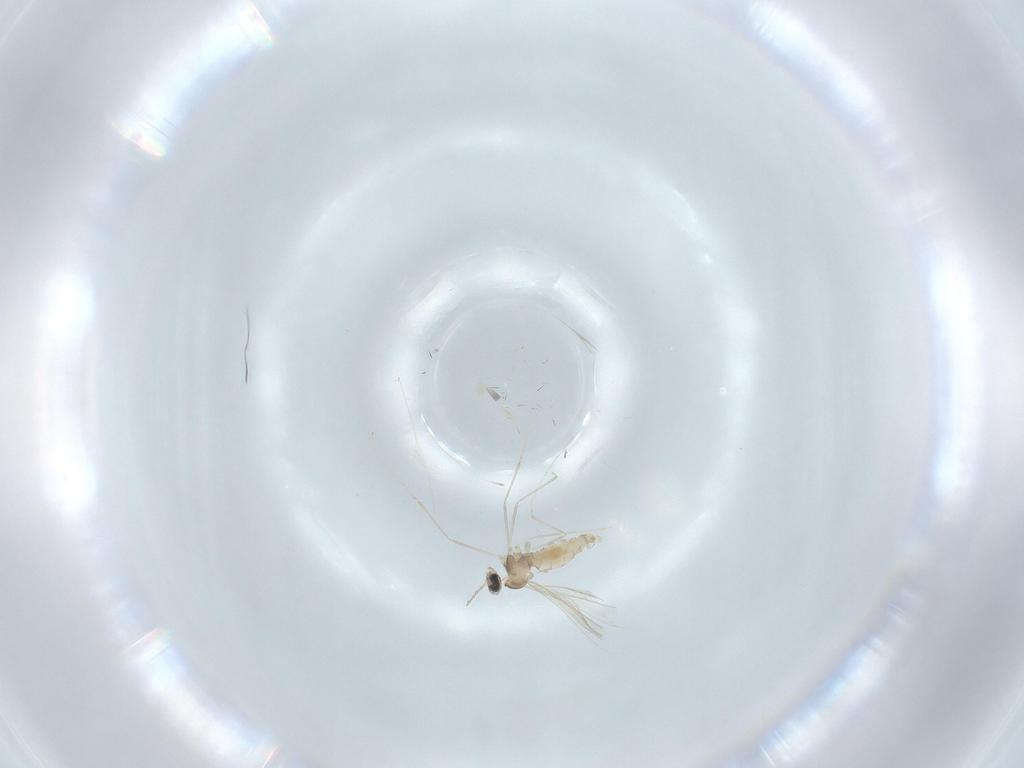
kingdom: Animalia
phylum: Arthropoda
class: Insecta
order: Diptera
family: Cecidomyiidae
